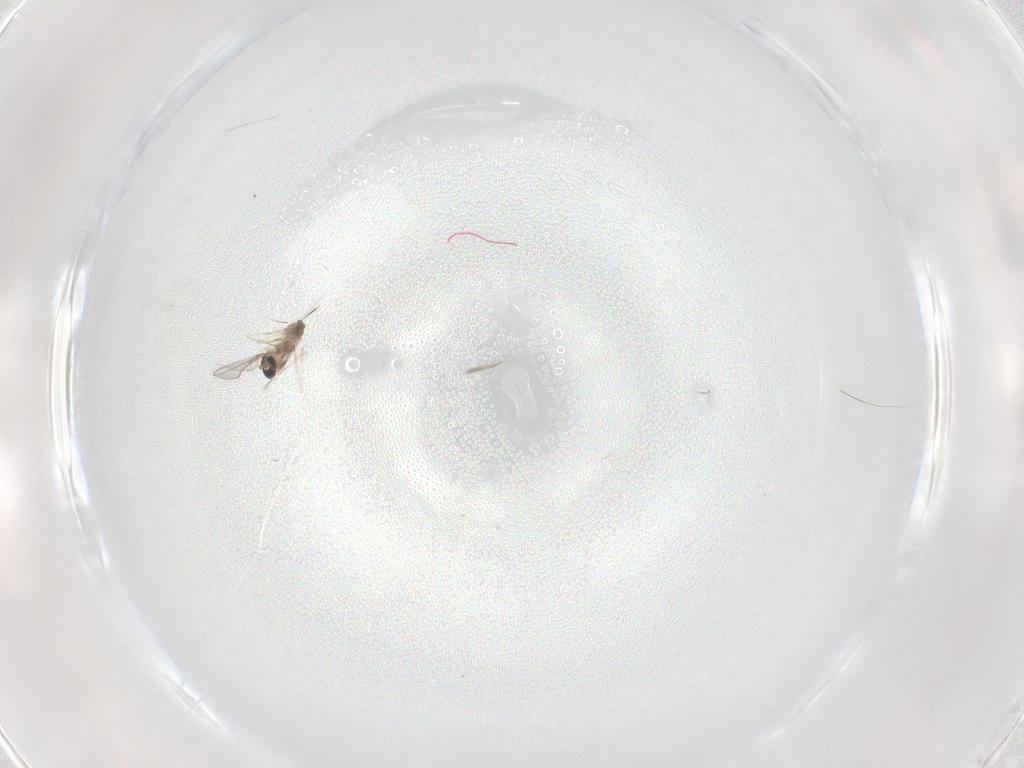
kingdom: Animalia
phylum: Arthropoda
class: Insecta
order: Diptera
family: Cecidomyiidae
